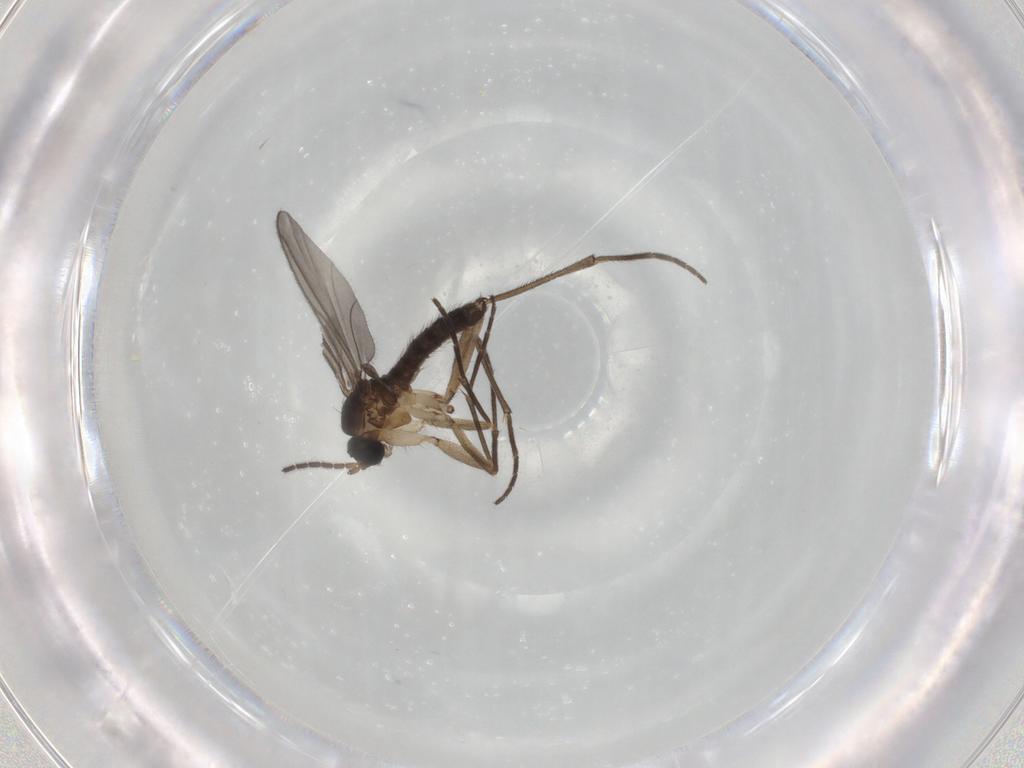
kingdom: Animalia
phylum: Arthropoda
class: Insecta
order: Diptera
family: Sciaridae
